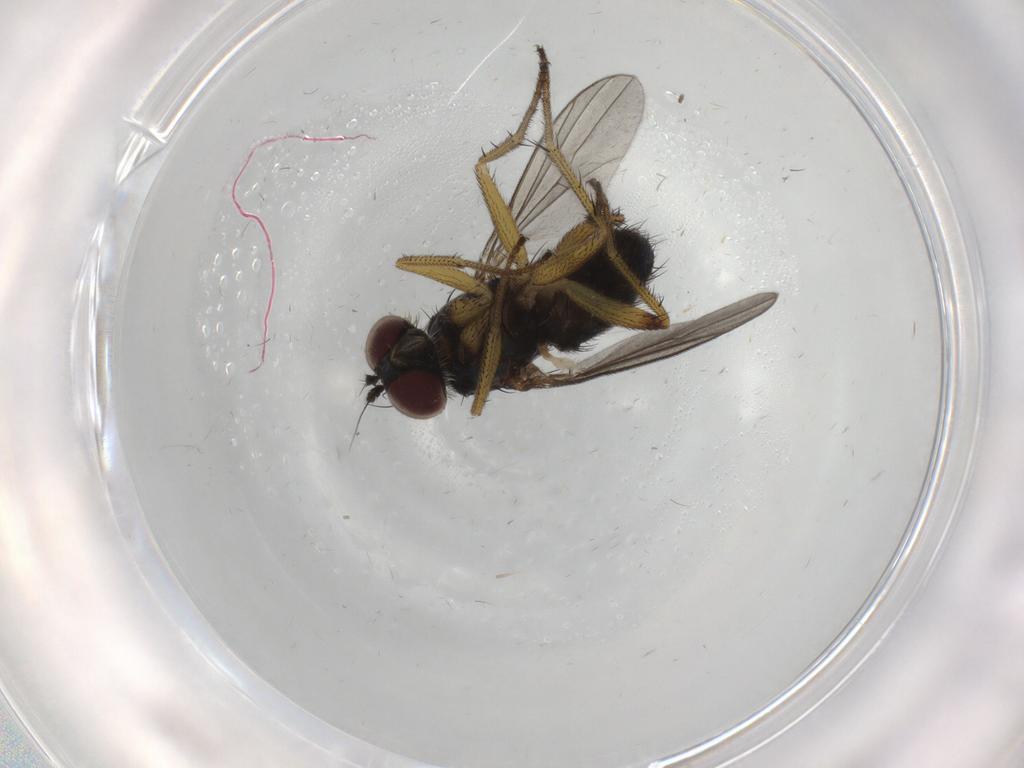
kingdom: Animalia
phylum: Arthropoda
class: Insecta
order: Diptera
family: Dolichopodidae
